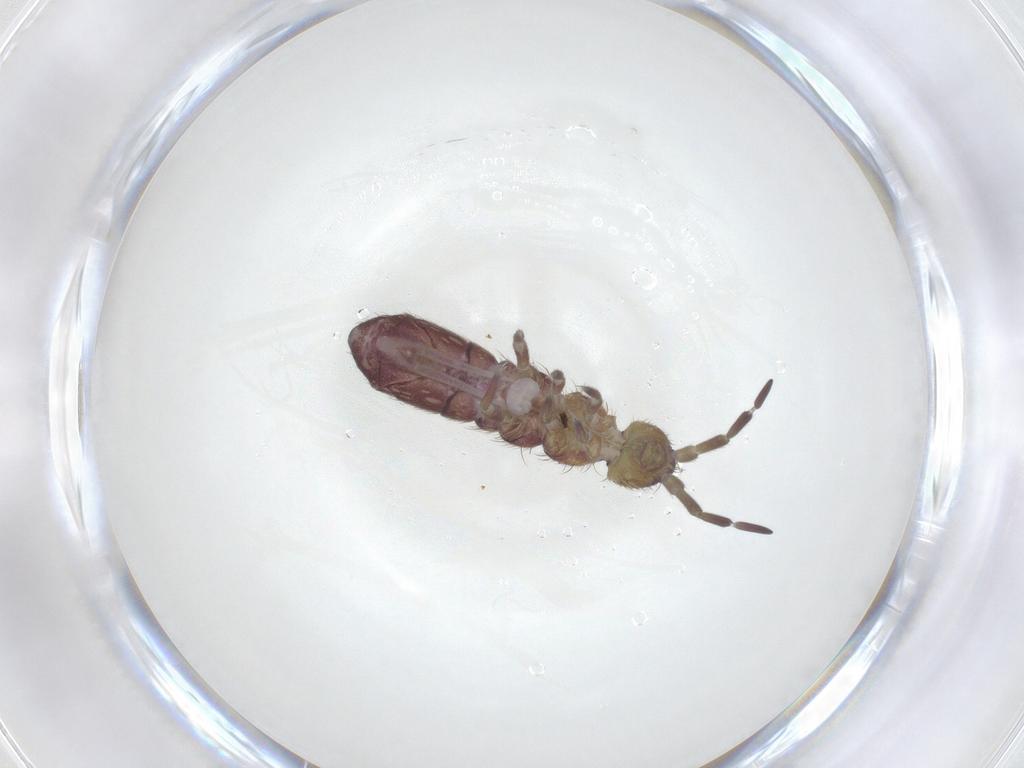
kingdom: Animalia
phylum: Arthropoda
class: Collembola
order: Entomobryomorpha
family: Isotomidae
